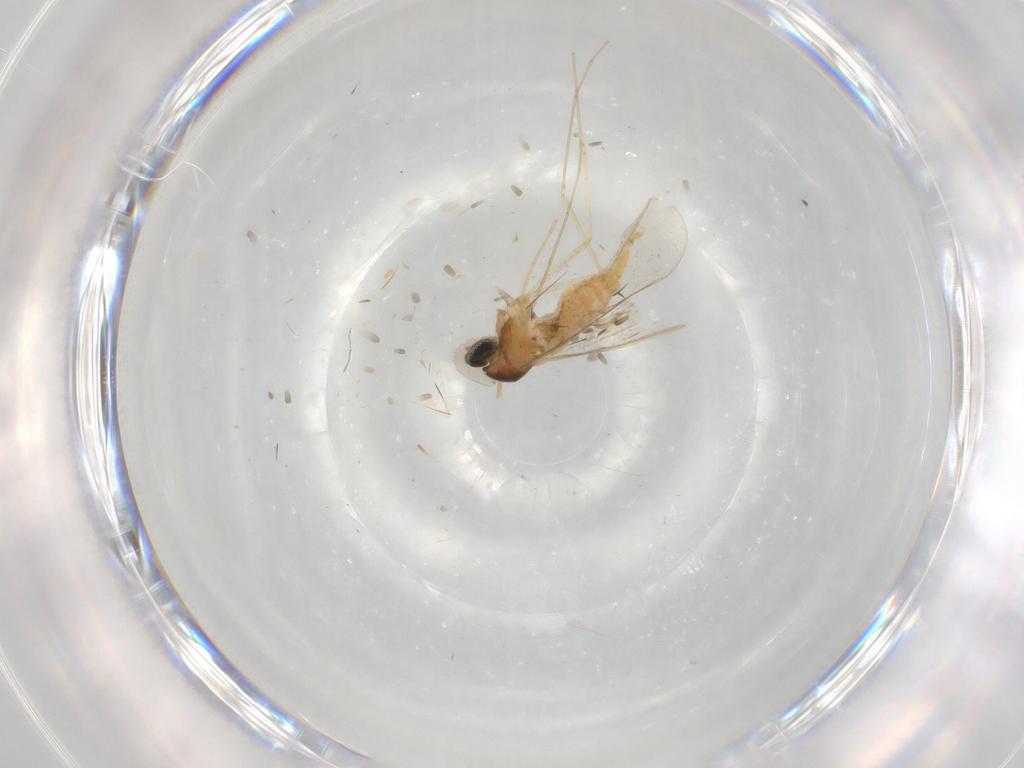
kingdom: Animalia
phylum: Arthropoda
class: Insecta
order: Diptera
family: Cecidomyiidae
